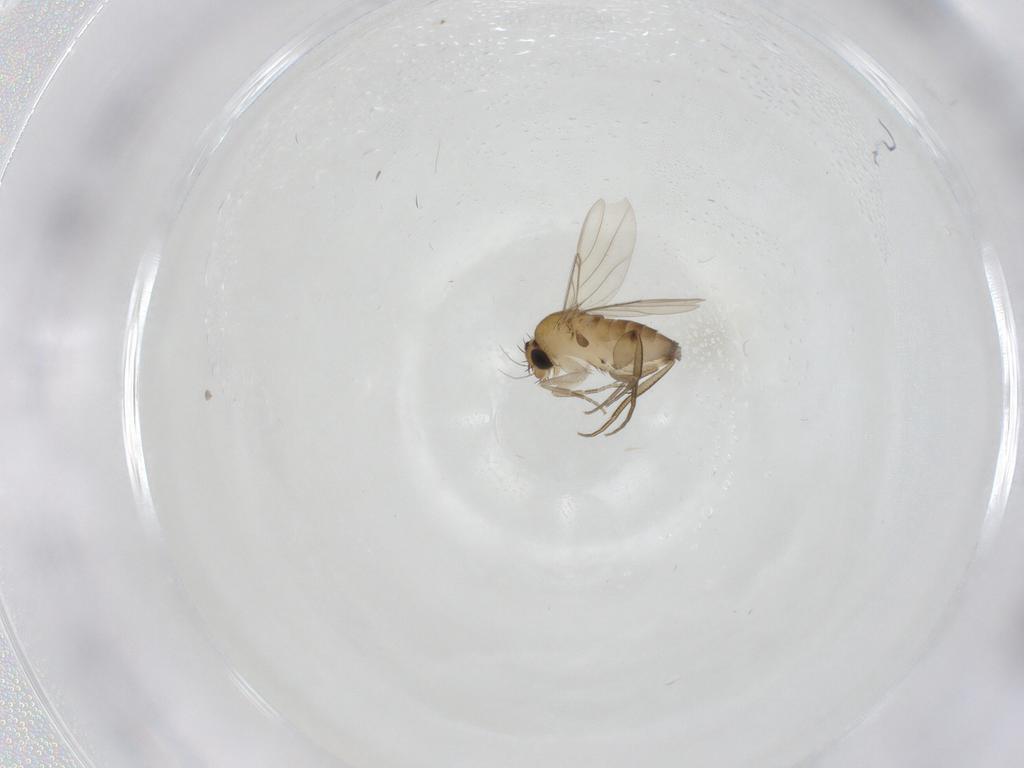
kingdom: Animalia
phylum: Arthropoda
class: Insecta
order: Diptera
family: Phoridae
